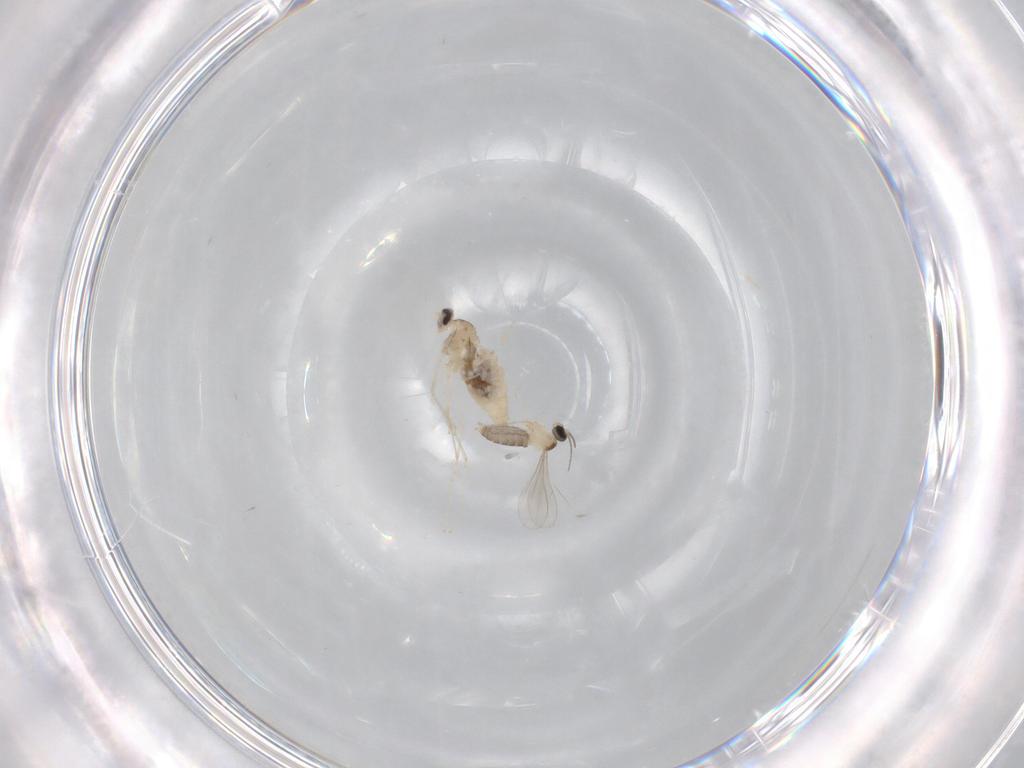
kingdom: Animalia
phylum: Arthropoda
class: Insecta
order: Diptera
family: Cecidomyiidae
